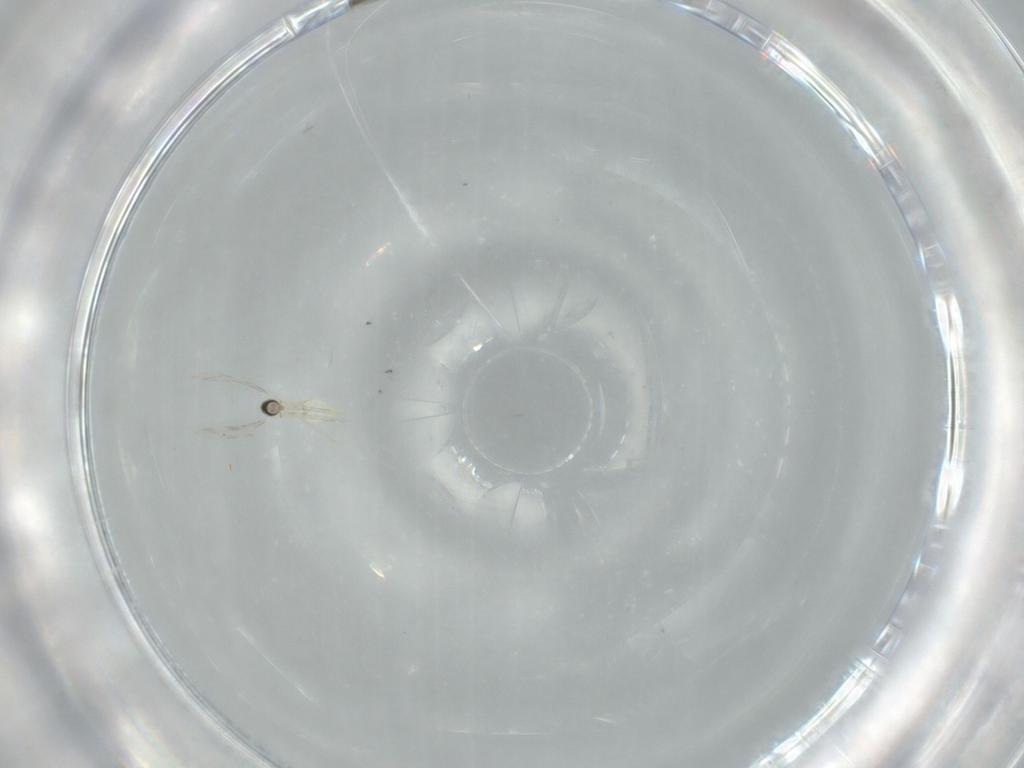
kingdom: Animalia
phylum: Arthropoda
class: Insecta
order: Diptera
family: Cecidomyiidae
